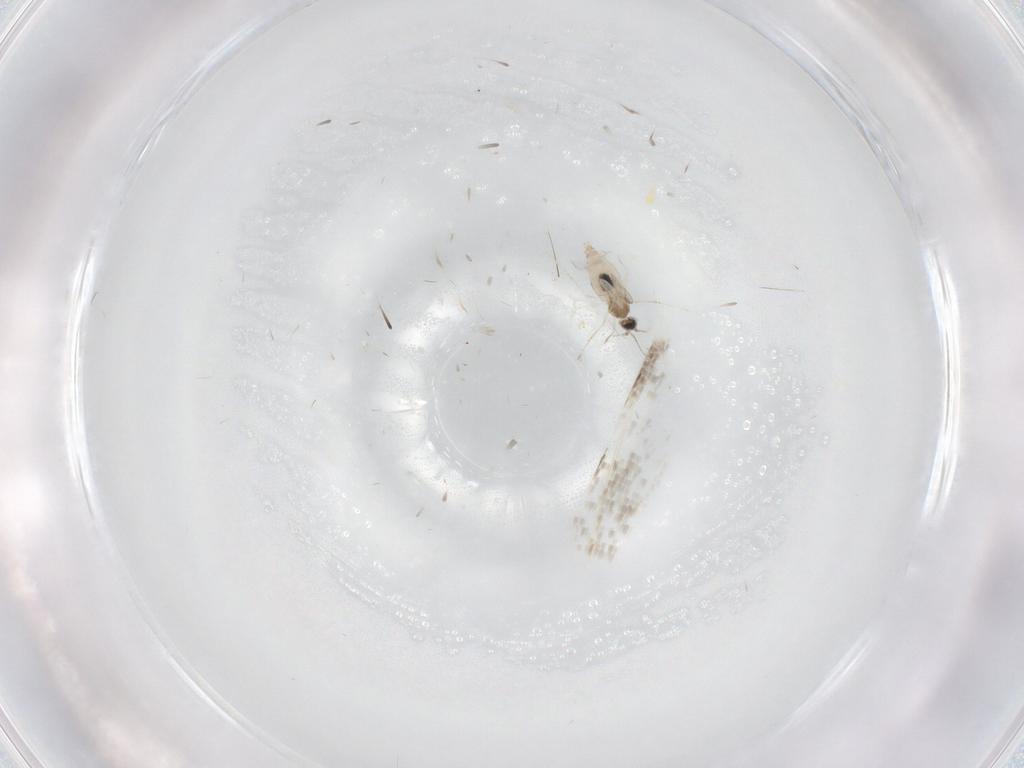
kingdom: Animalia
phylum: Arthropoda
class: Insecta
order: Diptera
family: Cecidomyiidae
